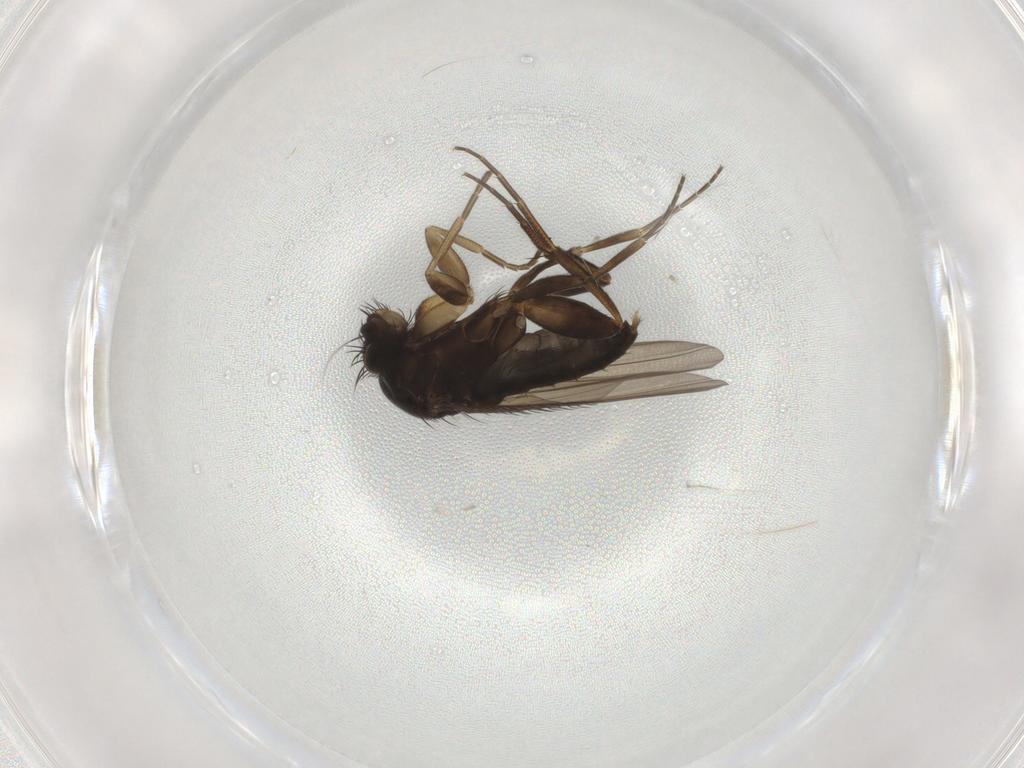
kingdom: Animalia
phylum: Arthropoda
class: Insecta
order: Diptera
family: Phoridae
